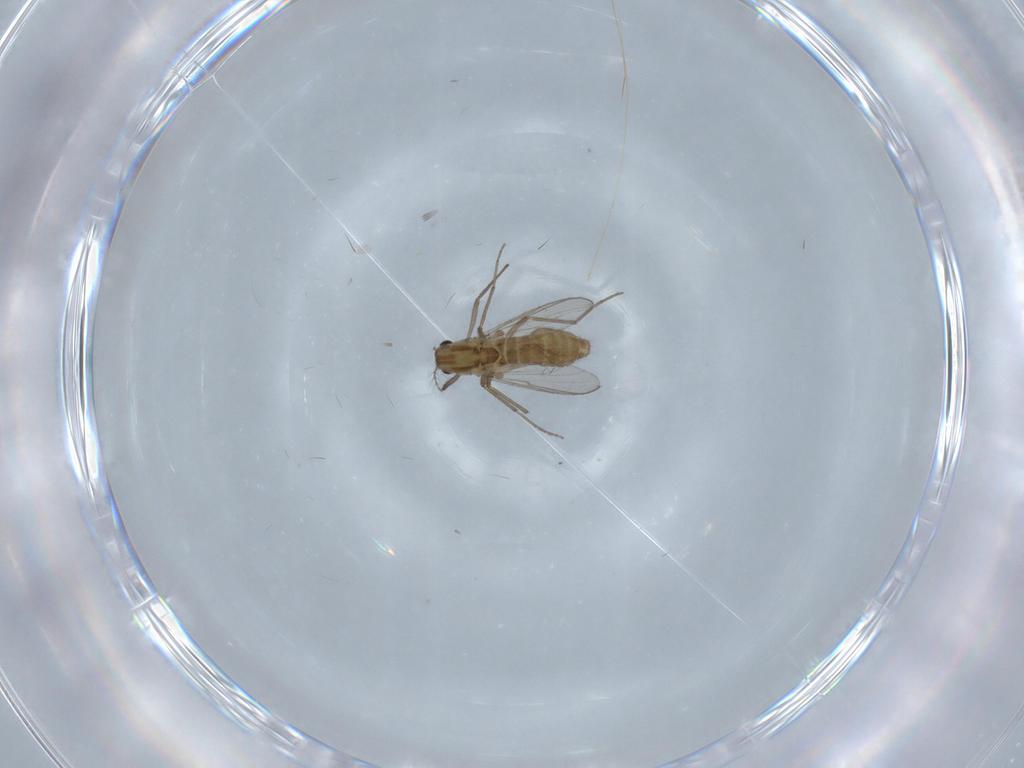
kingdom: Animalia
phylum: Arthropoda
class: Insecta
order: Diptera
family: Chironomidae
